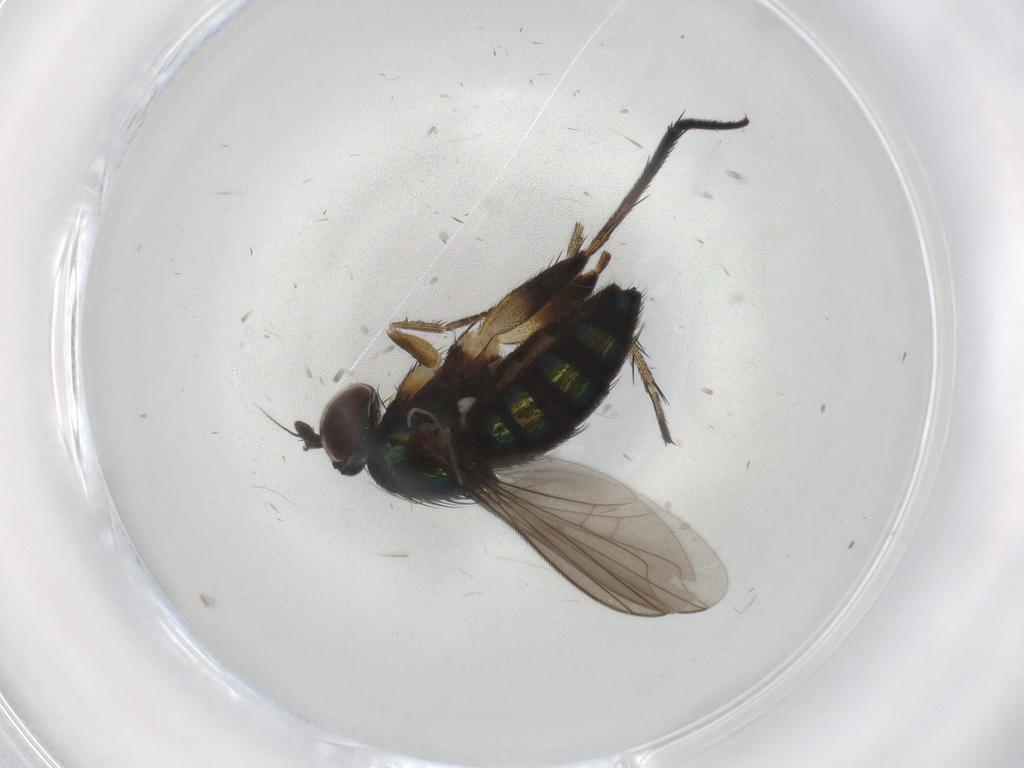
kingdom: Animalia
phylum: Arthropoda
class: Insecta
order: Diptera
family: Dolichopodidae
